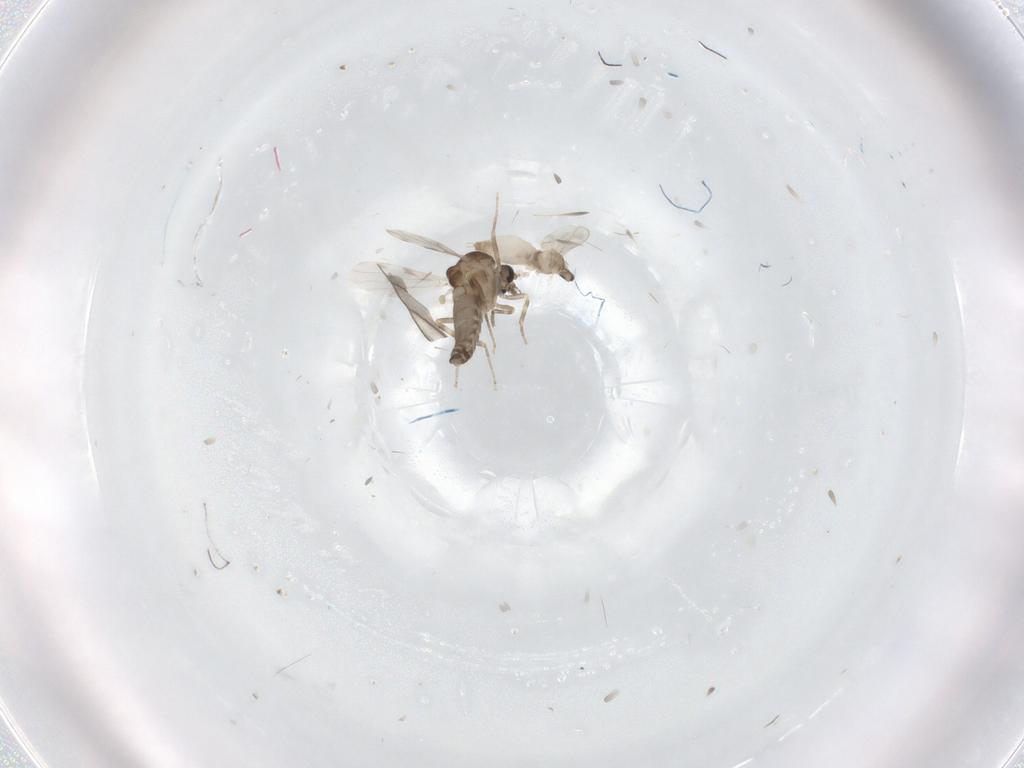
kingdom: Animalia
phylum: Arthropoda
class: Insecta
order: Diptera
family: Ceratopogonidae
